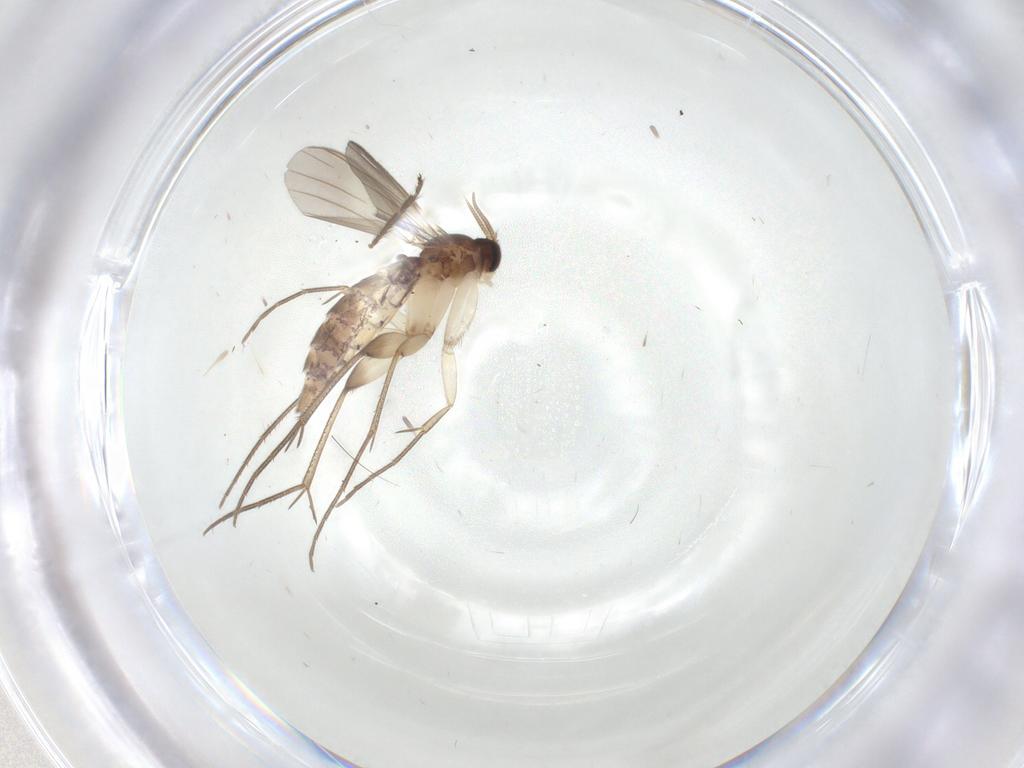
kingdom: Animalia
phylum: Arthropoda
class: Insecta
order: Diptera
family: Mycetophilidae
